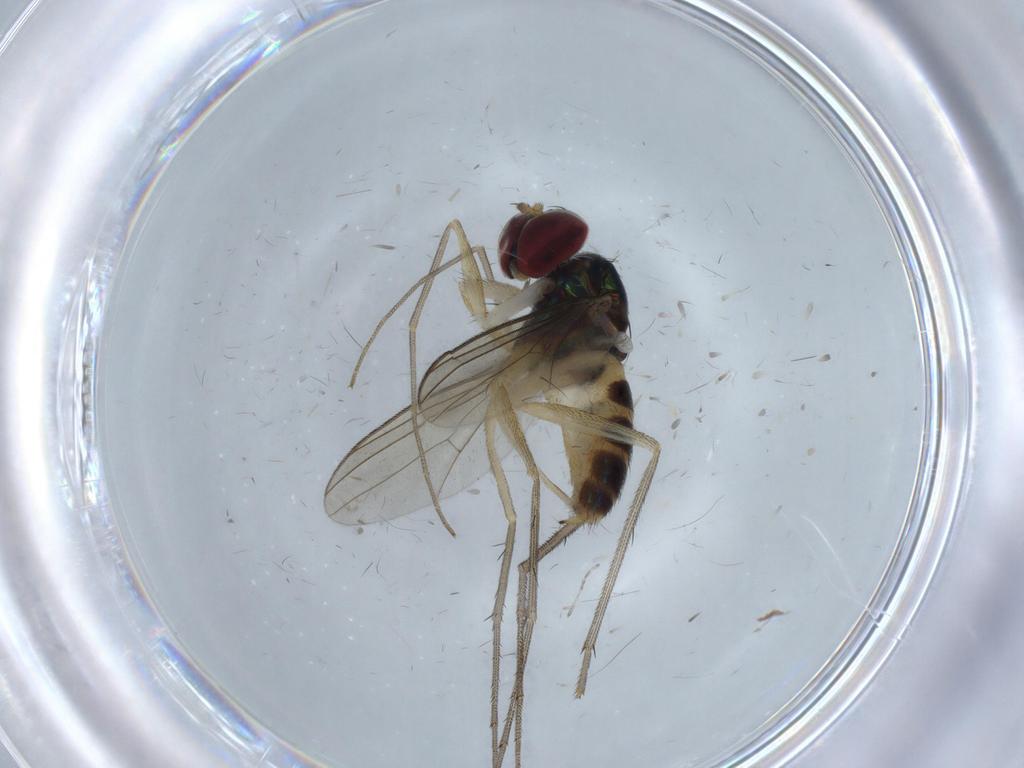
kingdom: Animalia
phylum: Arthropoda
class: Insecta
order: Diptera
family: Dolichopodidae
